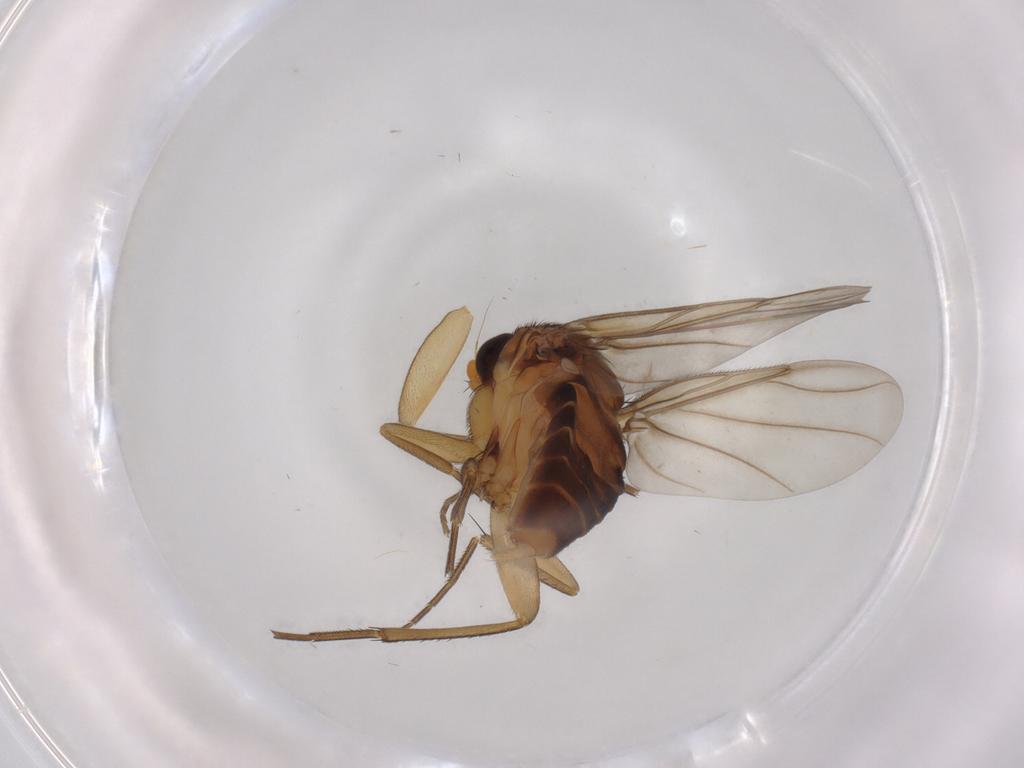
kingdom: Animalia
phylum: Arthropoda
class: Insecta
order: Diptera
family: Phoridae
